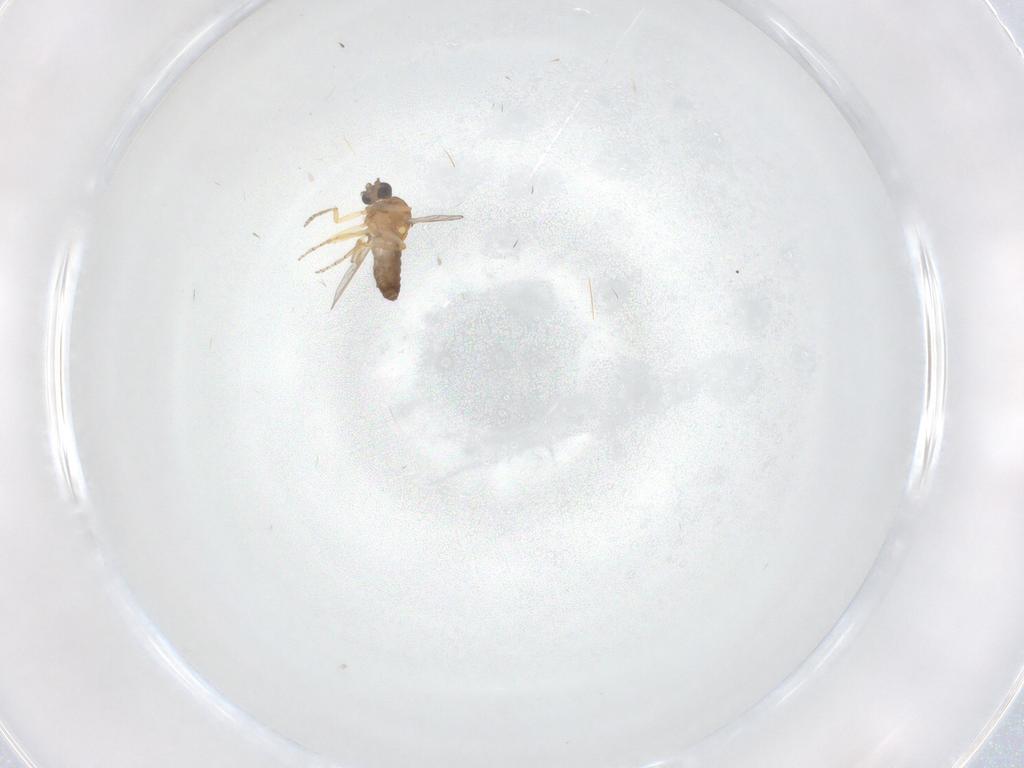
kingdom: Animalia
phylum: Arthropoda
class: Insecta
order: Diptera
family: Ceratopogonidae
